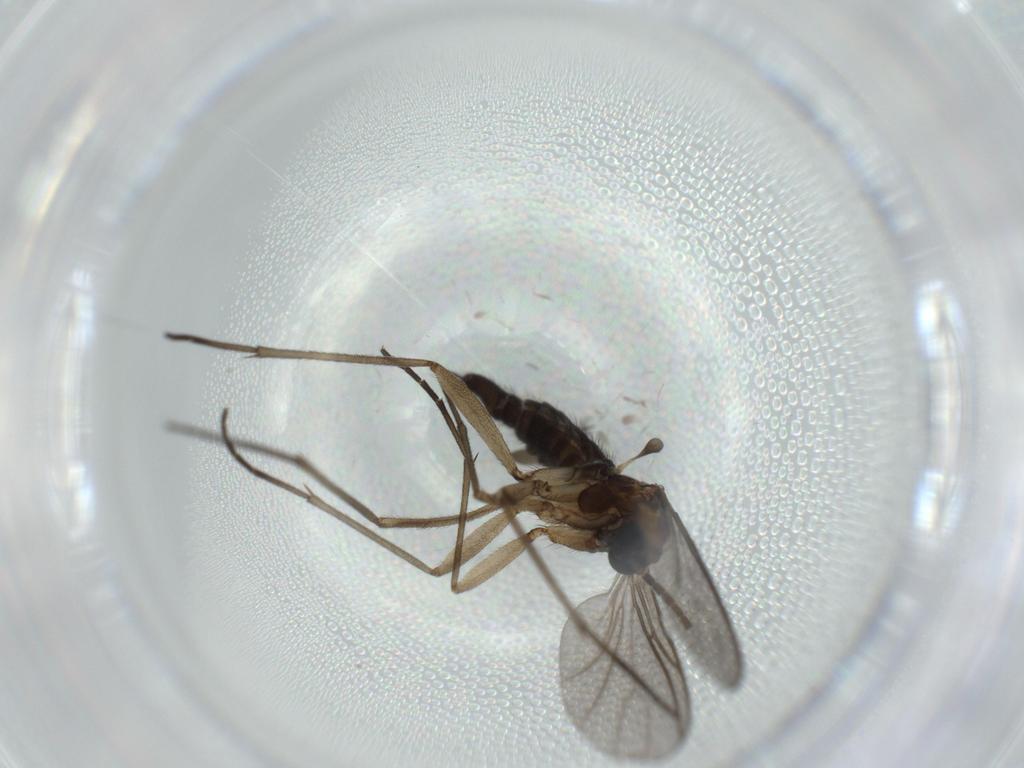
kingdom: Animalia
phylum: Arthropoda
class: Insecta
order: Diptera
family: Sciaridae
